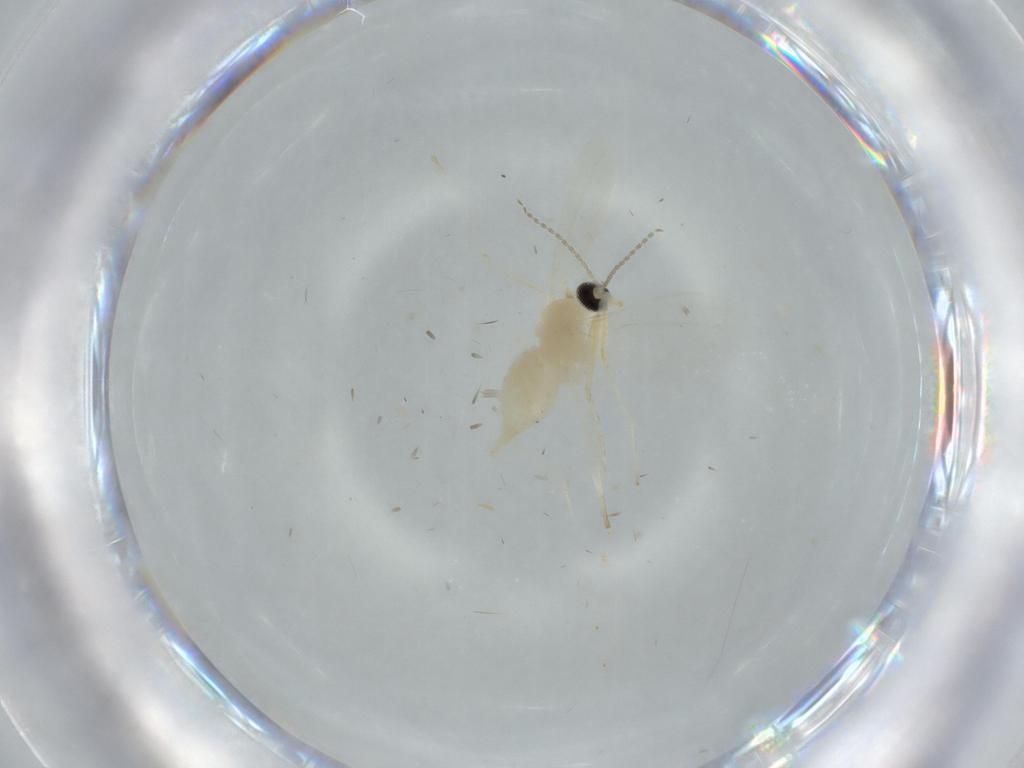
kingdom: Animalia
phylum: Arthropoda
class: Insecta
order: Diptera
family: Cecidomyiidae
